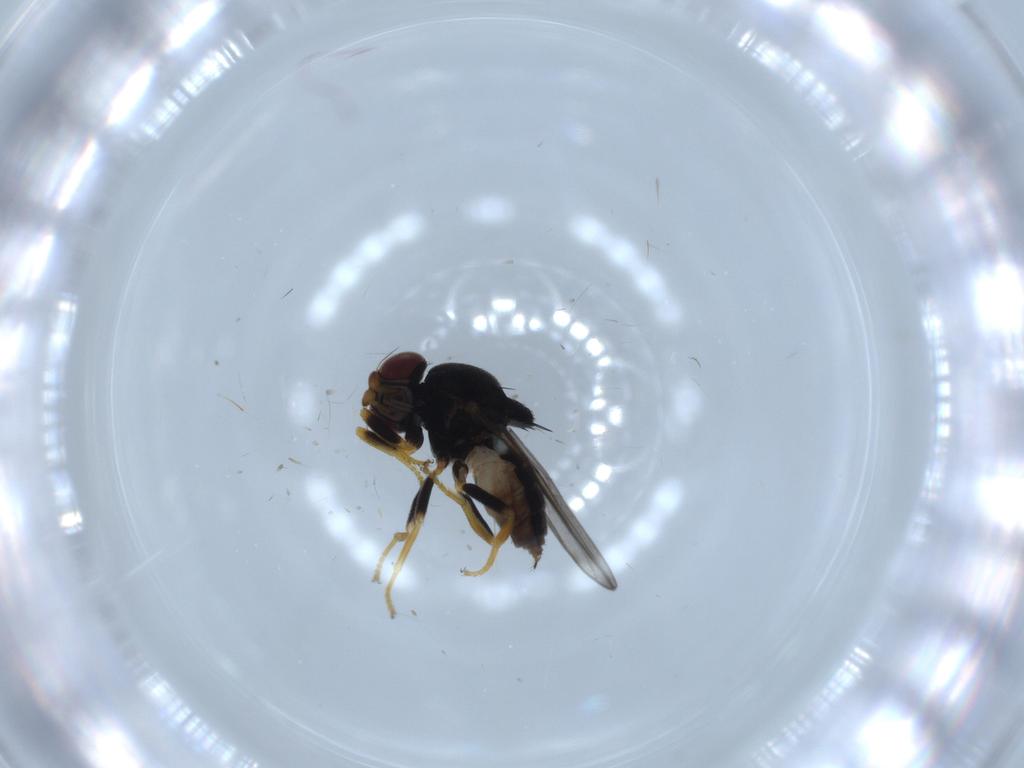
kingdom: Animalia
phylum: Arthropoda
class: Insecta
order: Diptera
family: Chloropidae
